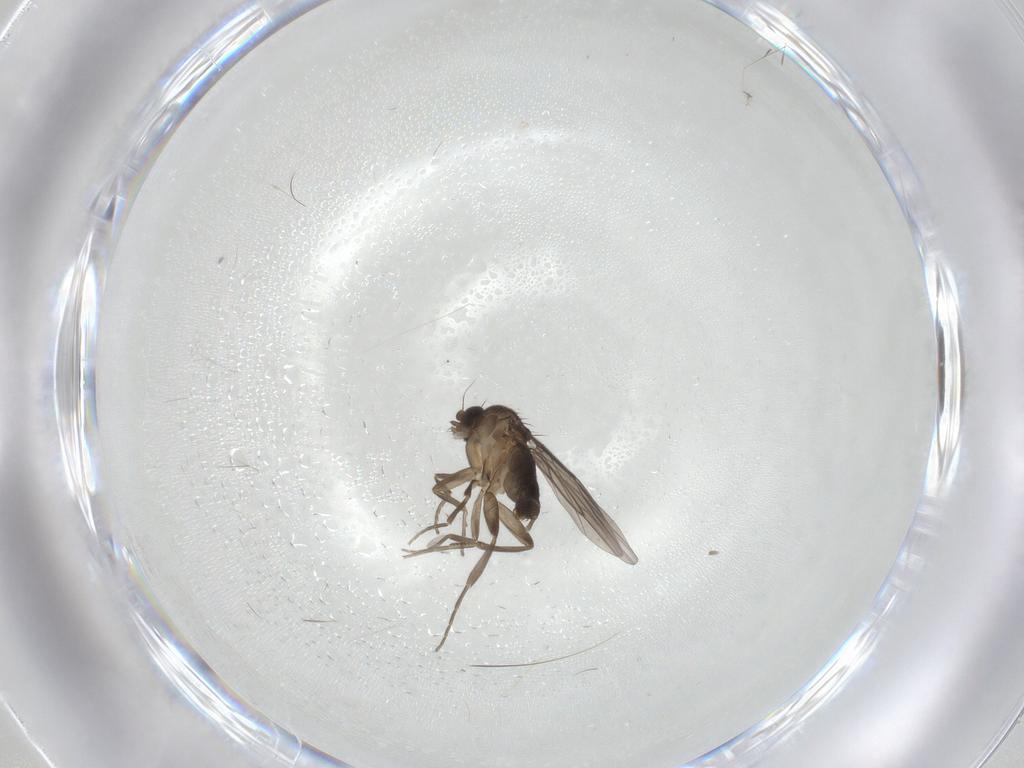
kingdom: Animalia
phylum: Arthropoda
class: Insecta
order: Diptera
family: Phoridae
